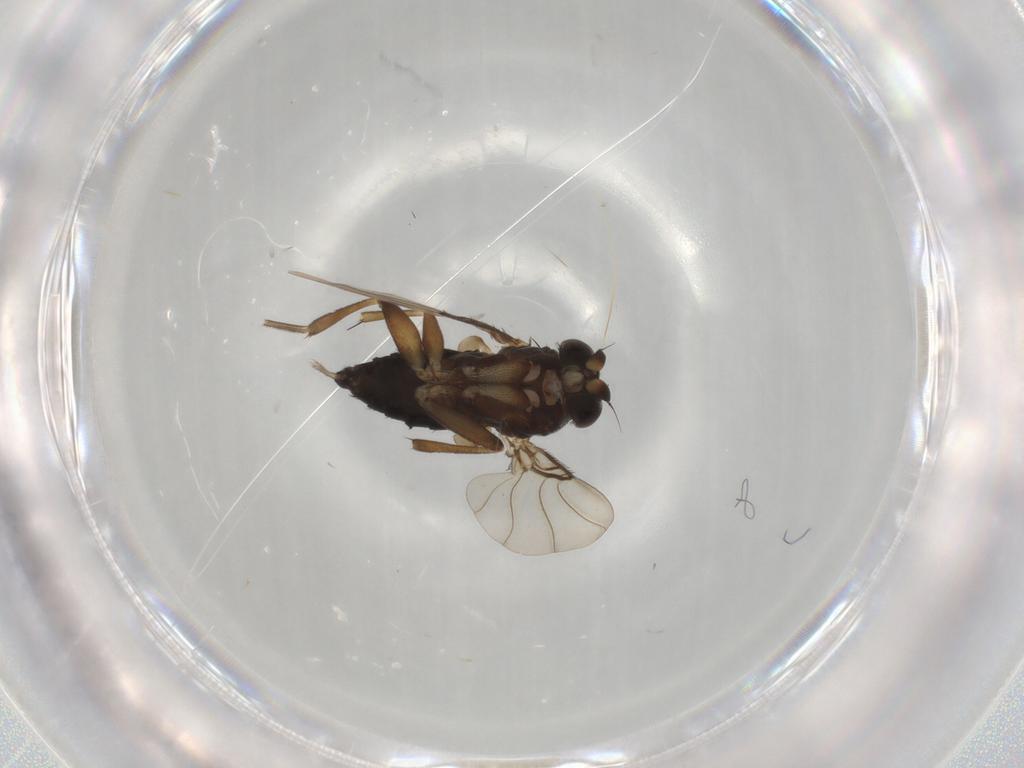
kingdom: Animalia
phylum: Arthropoda
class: Insecta
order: Diptera
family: Phoridae
